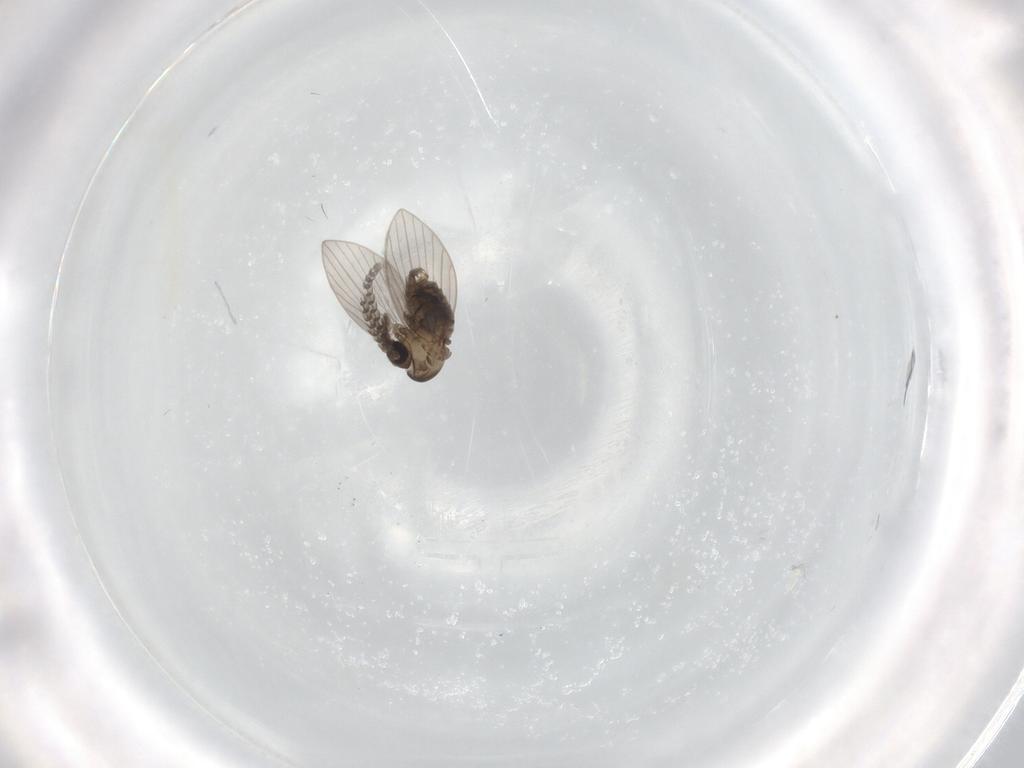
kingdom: Animalia
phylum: Arthropoda
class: Insecta
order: Diptera
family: Psychodidae
